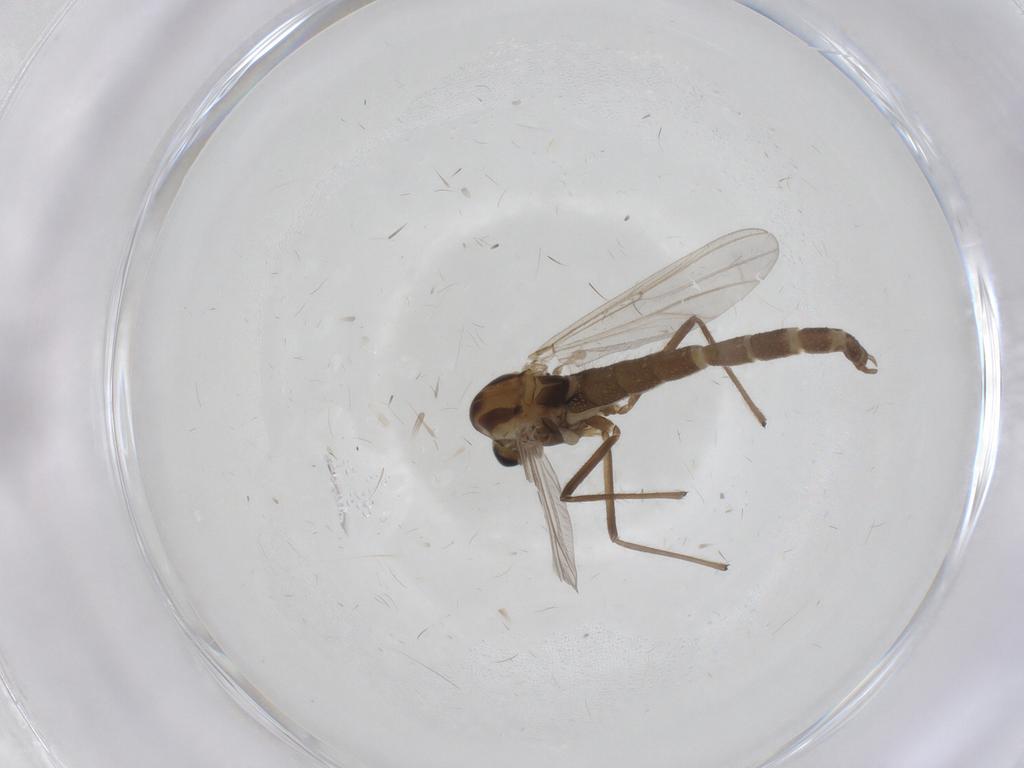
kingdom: Animalia
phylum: Arthropoda
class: Insecta
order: Diptera
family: Chironomidae
